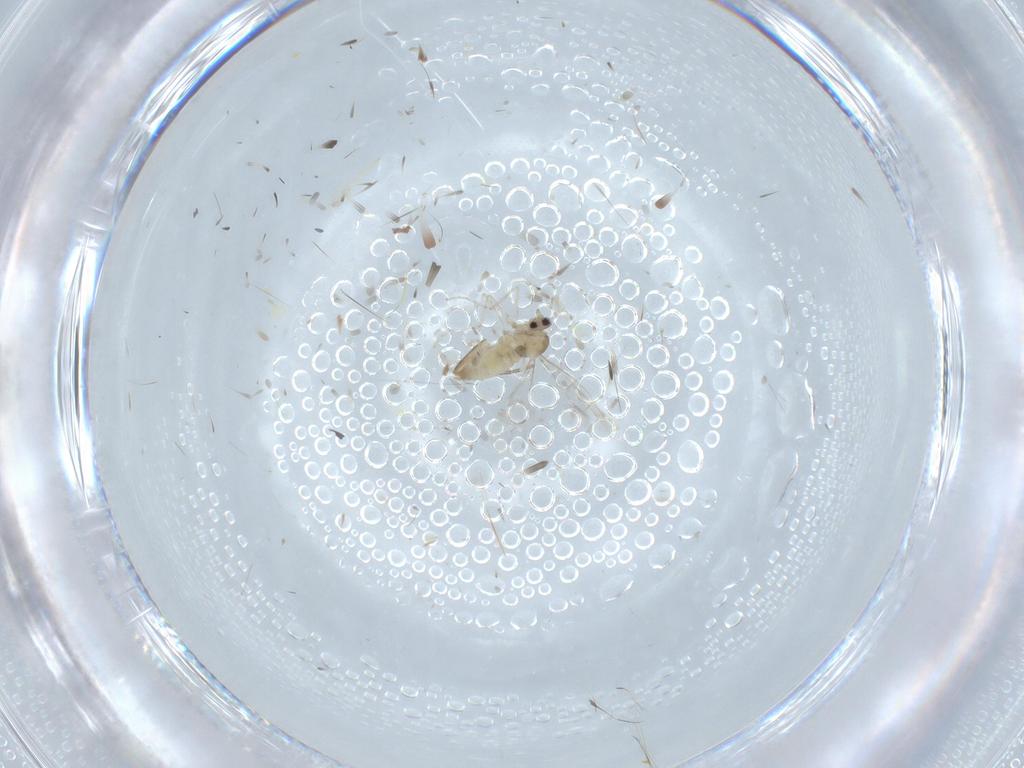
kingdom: Animalia
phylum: Arthropoda
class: Insecta
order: Diptera
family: Cecidomyiidae
